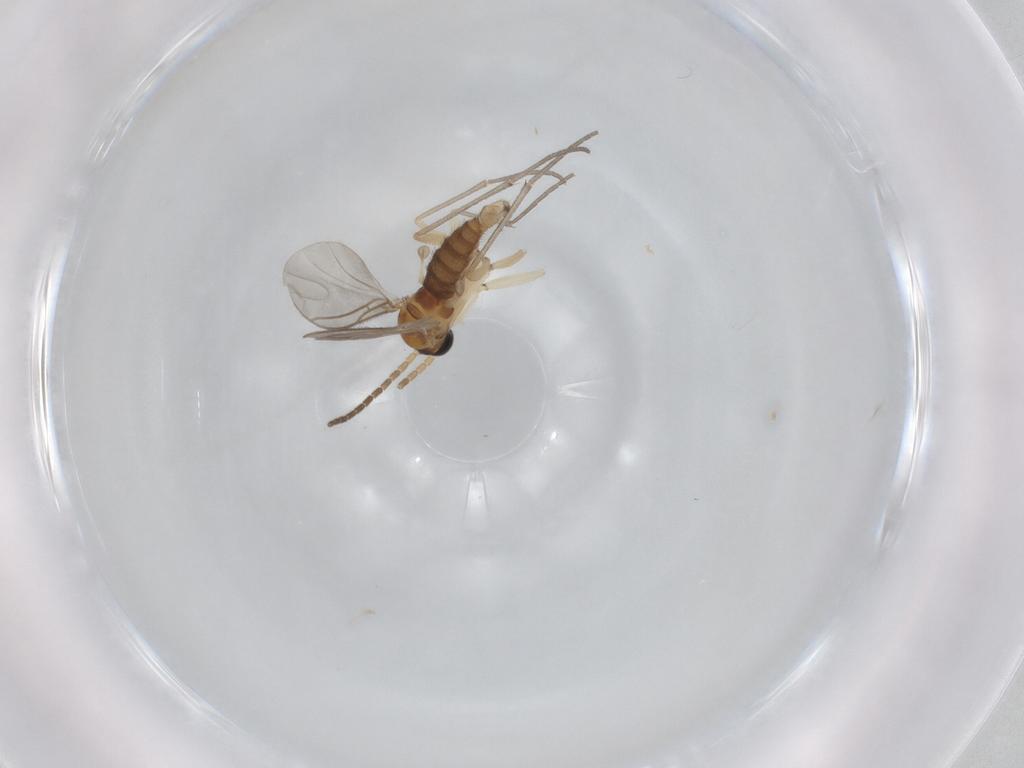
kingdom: Animalia
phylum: Arthropoda
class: Insecta
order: Diptera
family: Sciaridae
